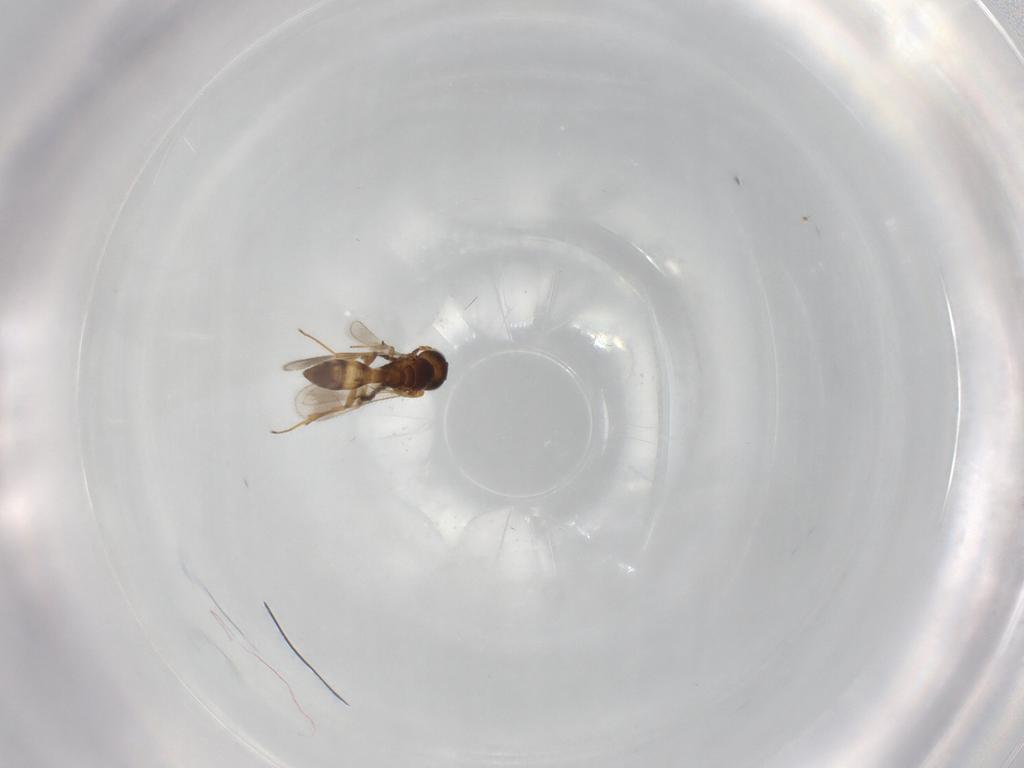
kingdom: Animalia
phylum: Arthropoda
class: Insecta
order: Hymenoptera
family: Scelionidae
